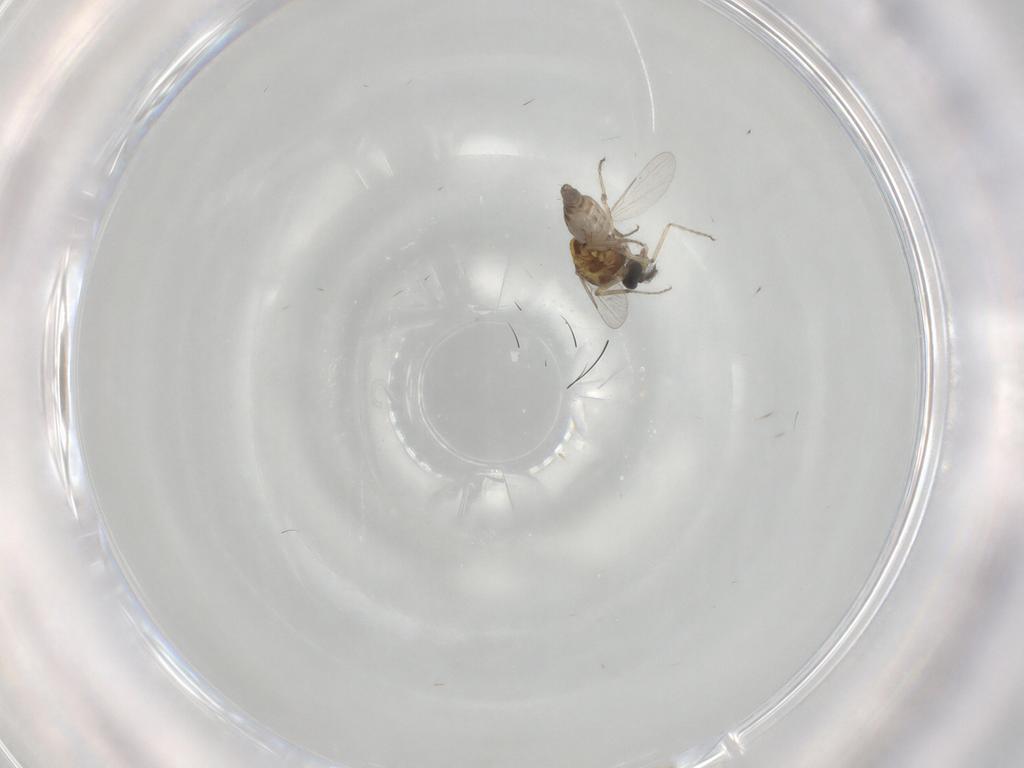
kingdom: Animalia
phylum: Arthropoda
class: Insecta
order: Diptera
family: Ceratopogonidae
